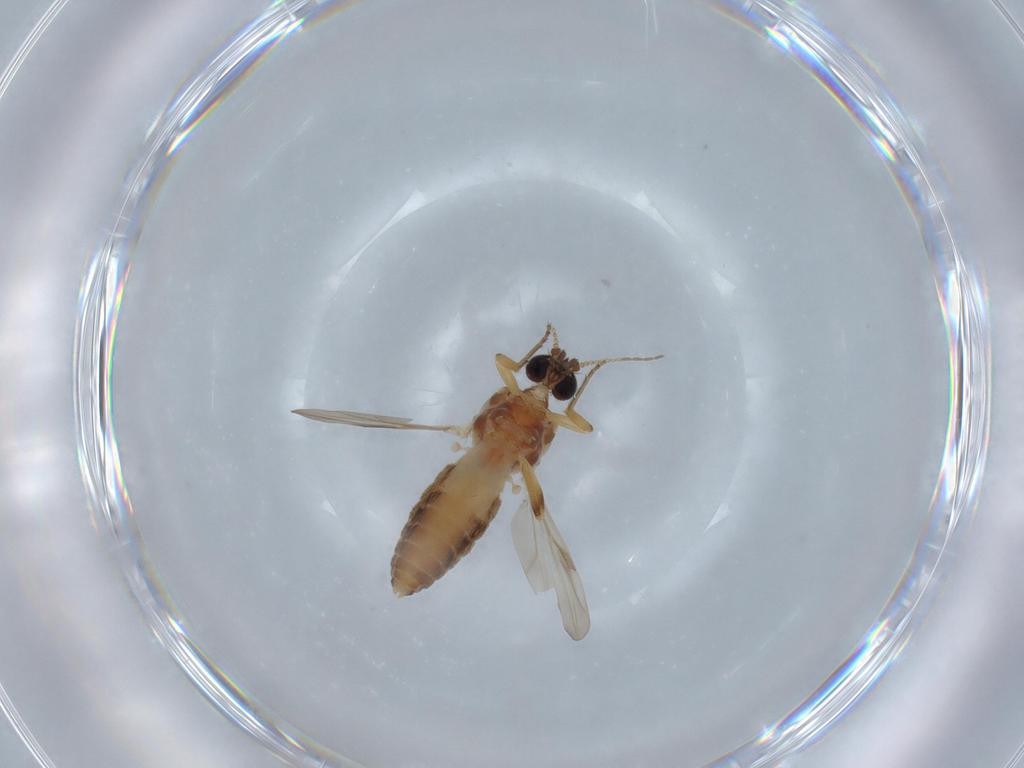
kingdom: Animalia
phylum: Arthropoda
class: Insecta
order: Diptera
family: Psychodidae
